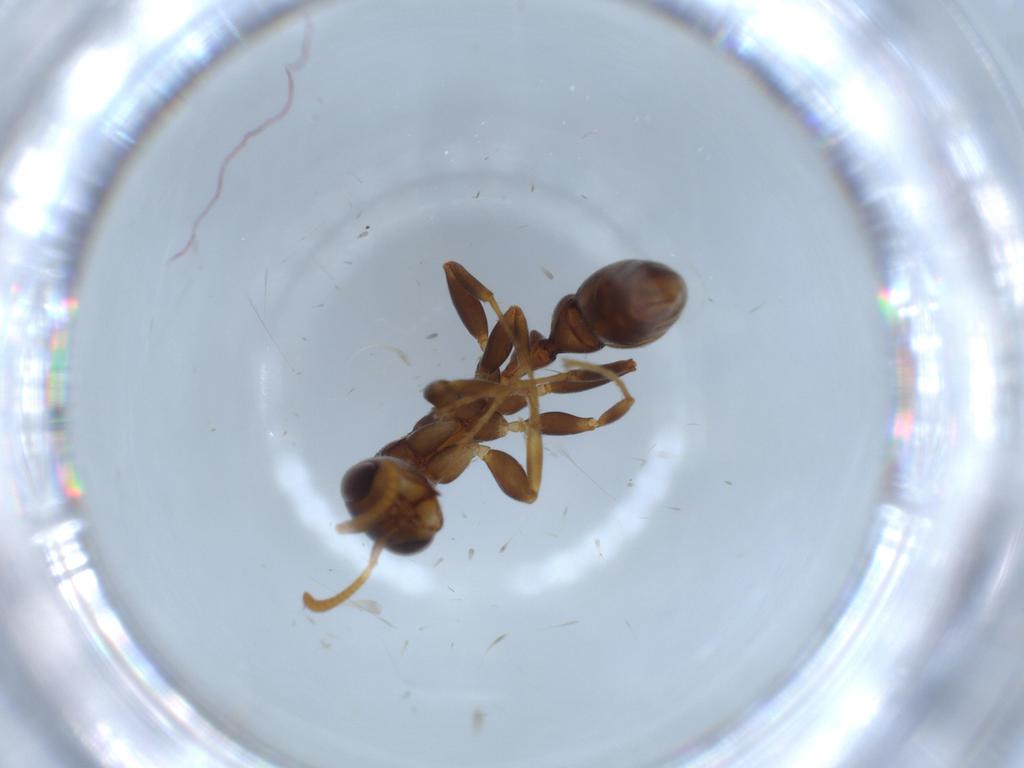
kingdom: Animalia
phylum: Arthropoda
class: Insecta
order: Hymenoptera
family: Formicidae
